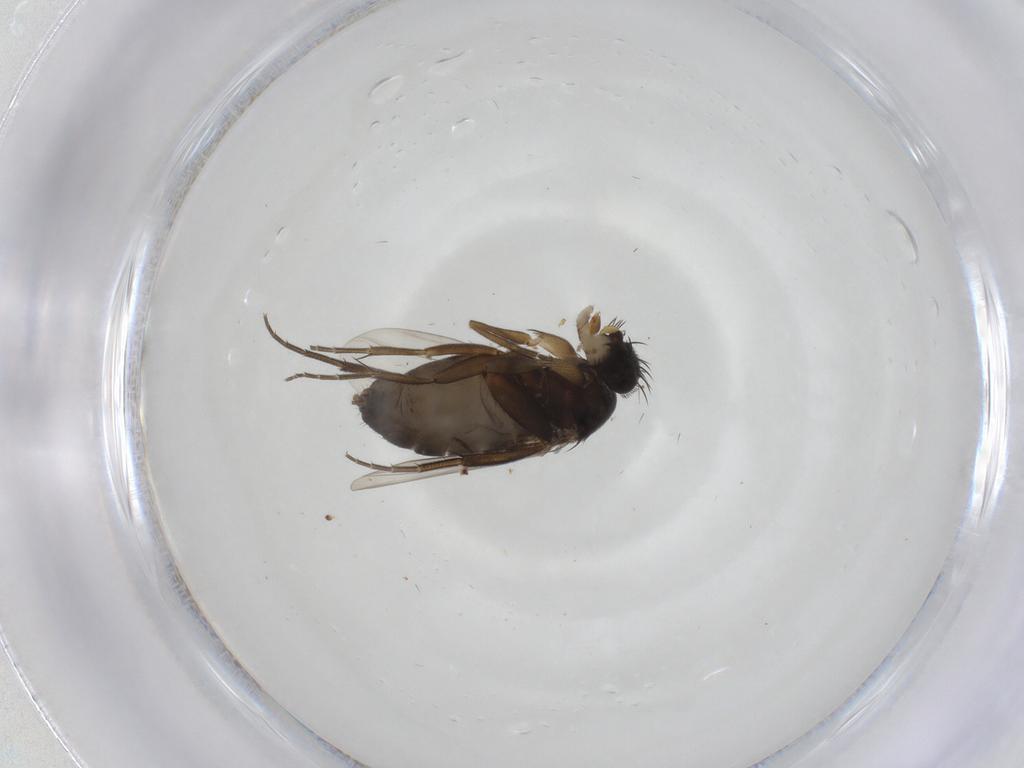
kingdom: Animalia
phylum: Arthropoda
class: Insecta
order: Diptera
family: Phoridae
